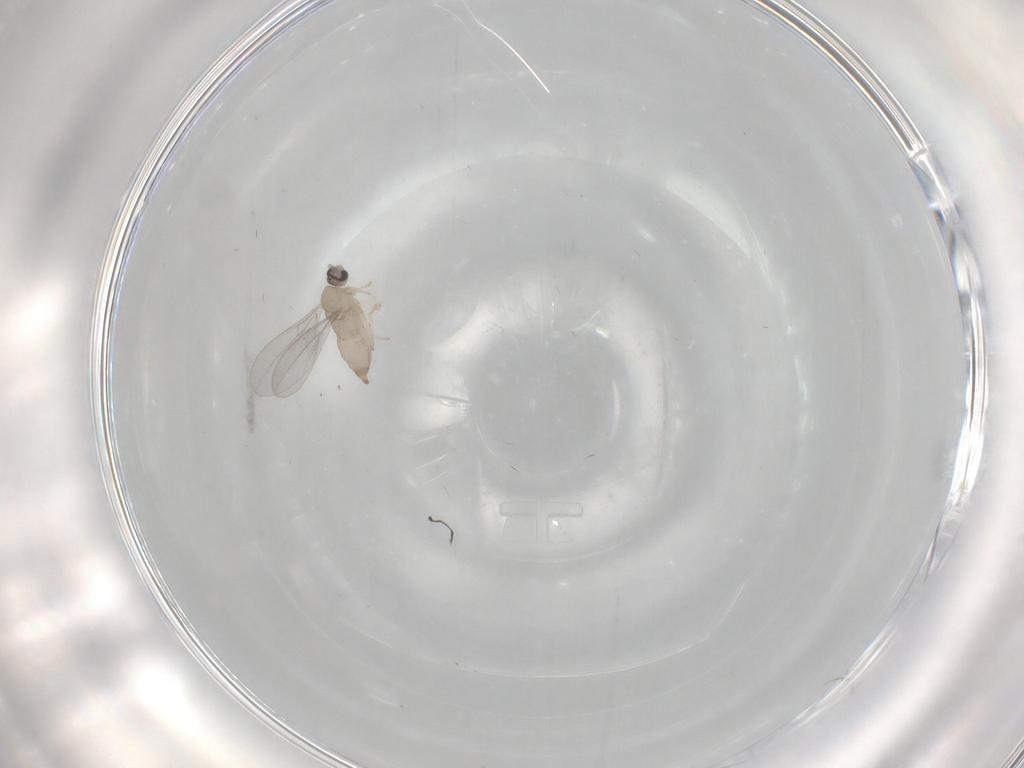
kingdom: Animalia
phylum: Arthropoda
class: Insecta
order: Diptera
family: Cecidomyiidae
